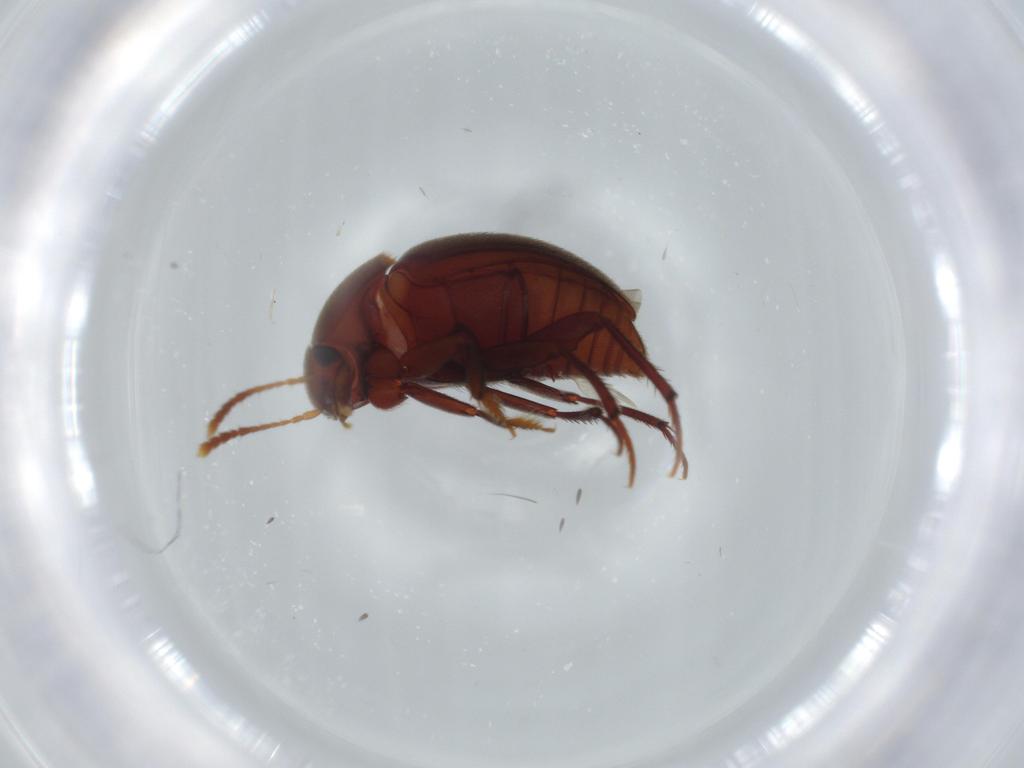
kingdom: Animalia
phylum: Arthropoda
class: Insecta
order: Coleoptera
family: Leiodidae
